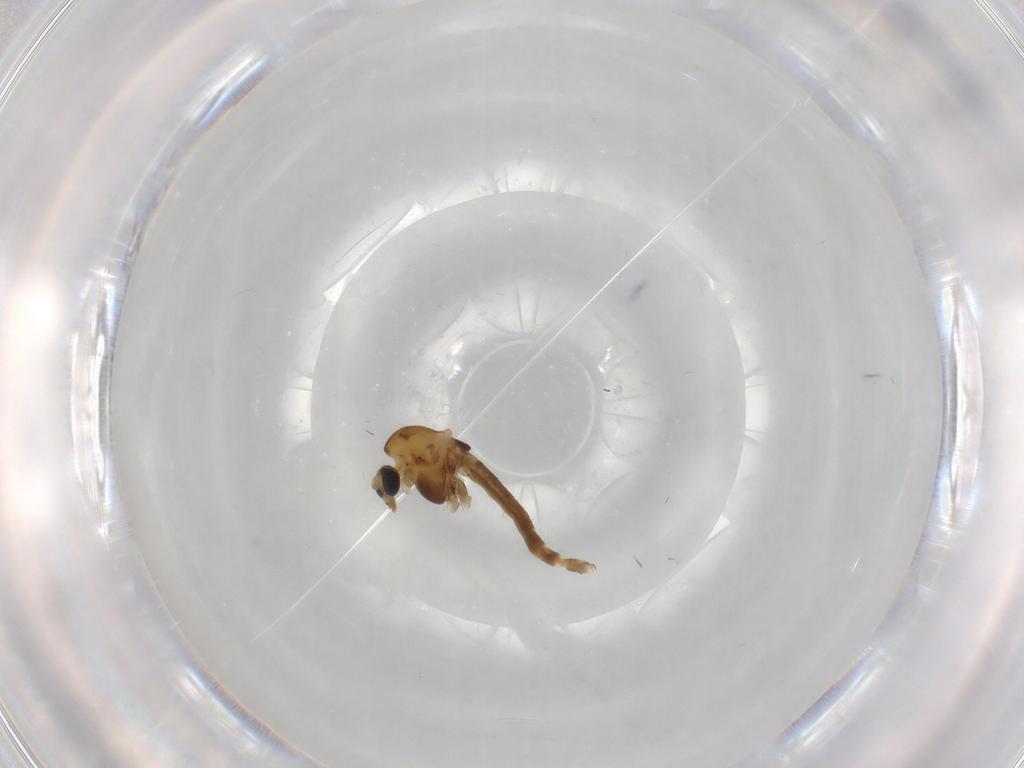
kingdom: Animalia
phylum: Arthropoda
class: Insecta
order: Diptera
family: Chironomidae
